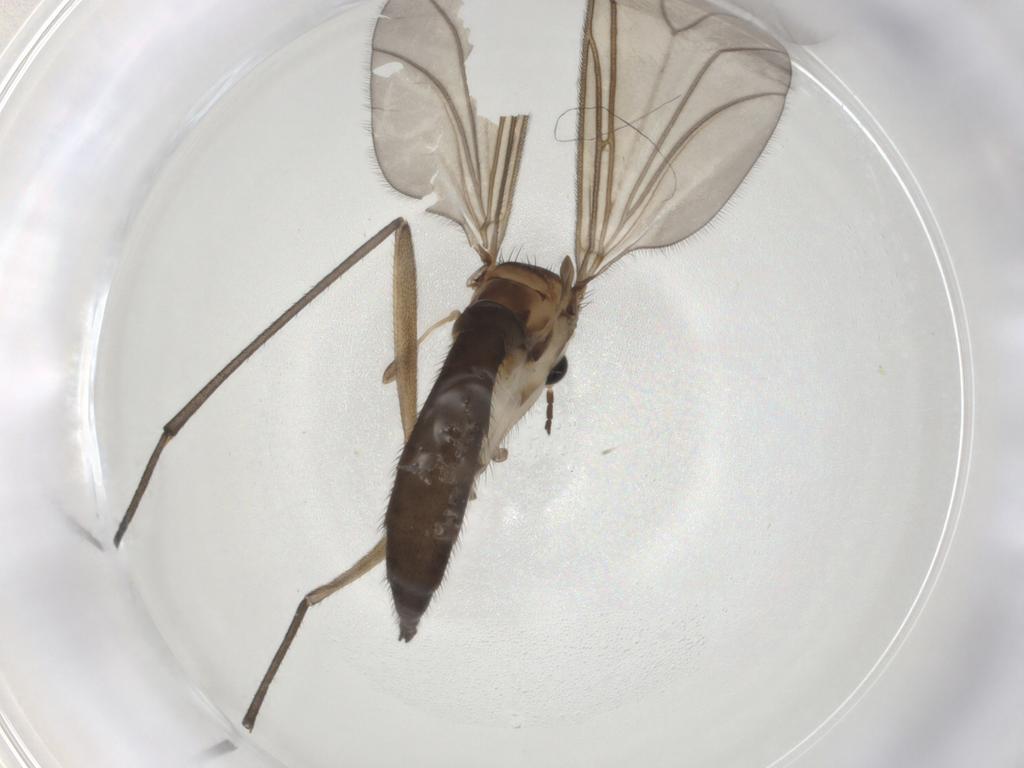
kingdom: Animalia
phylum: Arthropoda
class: Insecta
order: Diptera
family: Sciaridae
